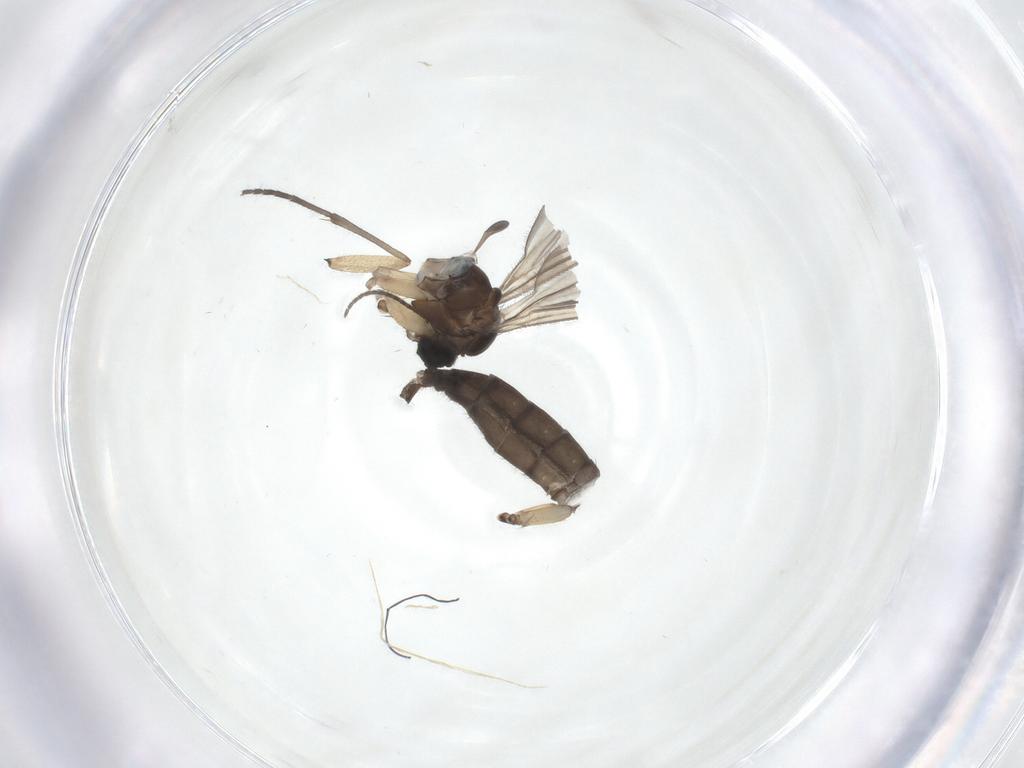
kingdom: Animalia
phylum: Arthropoda
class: Insecta
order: Diptera
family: Sciaridae
